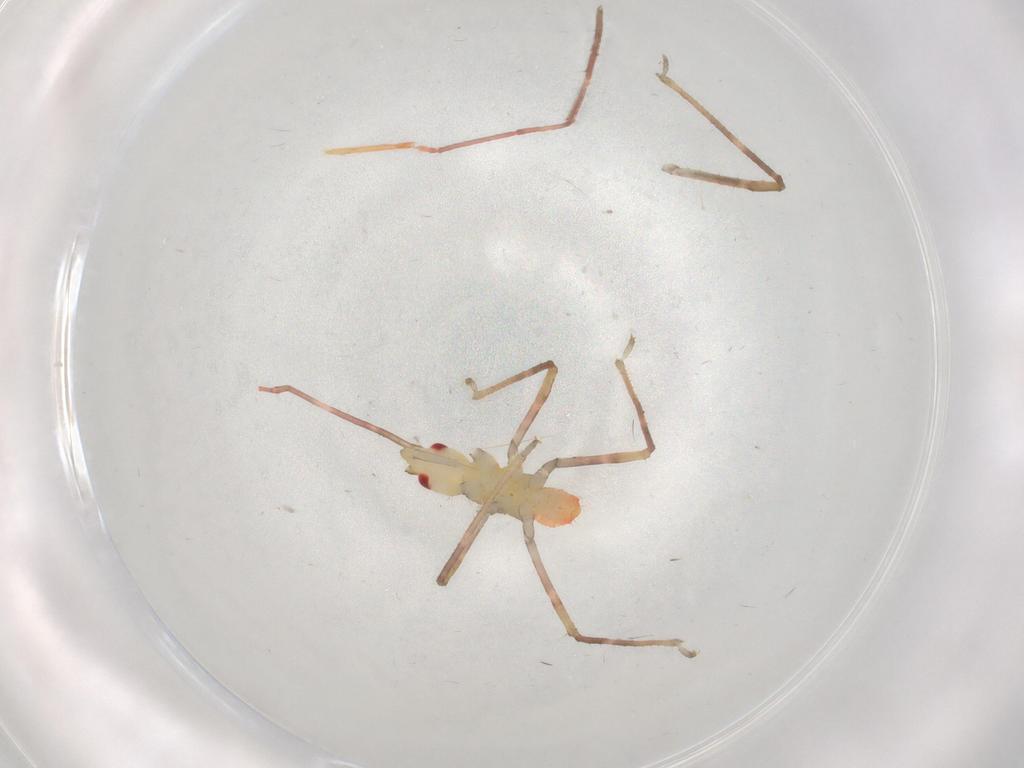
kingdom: Animalia
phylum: Arthropoda
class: Insecta
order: Hemiptera
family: Reduviidae
